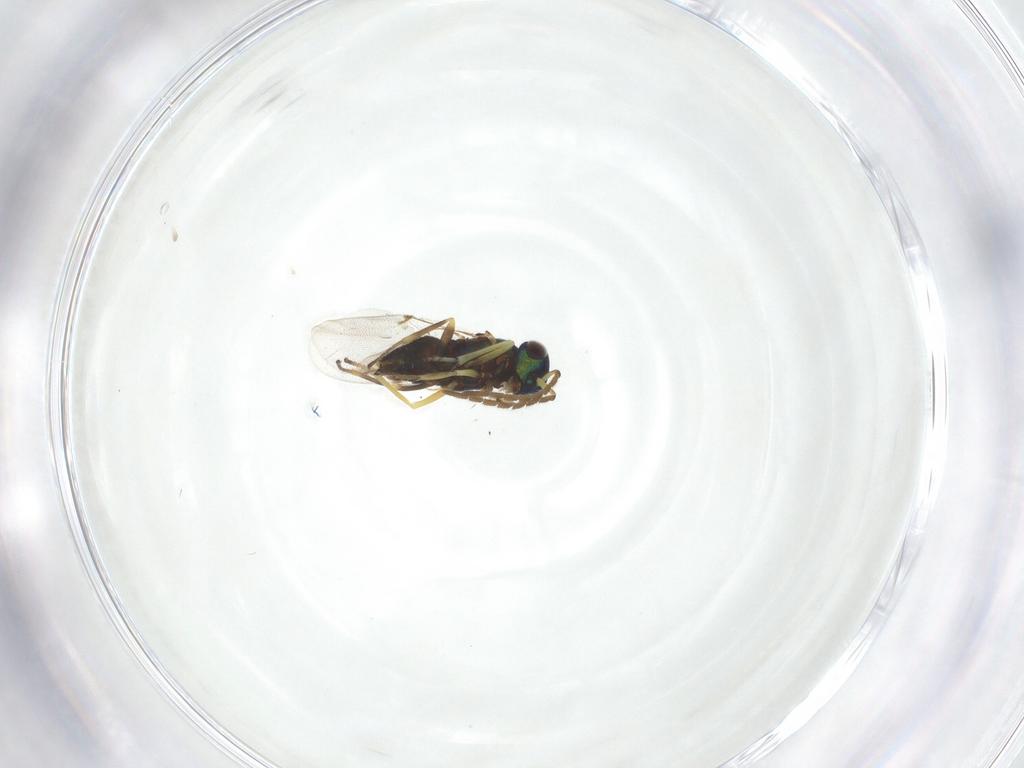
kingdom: Animalia
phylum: Arthropoda
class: Insecta
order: Hymenoptera
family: Encyrtidae
